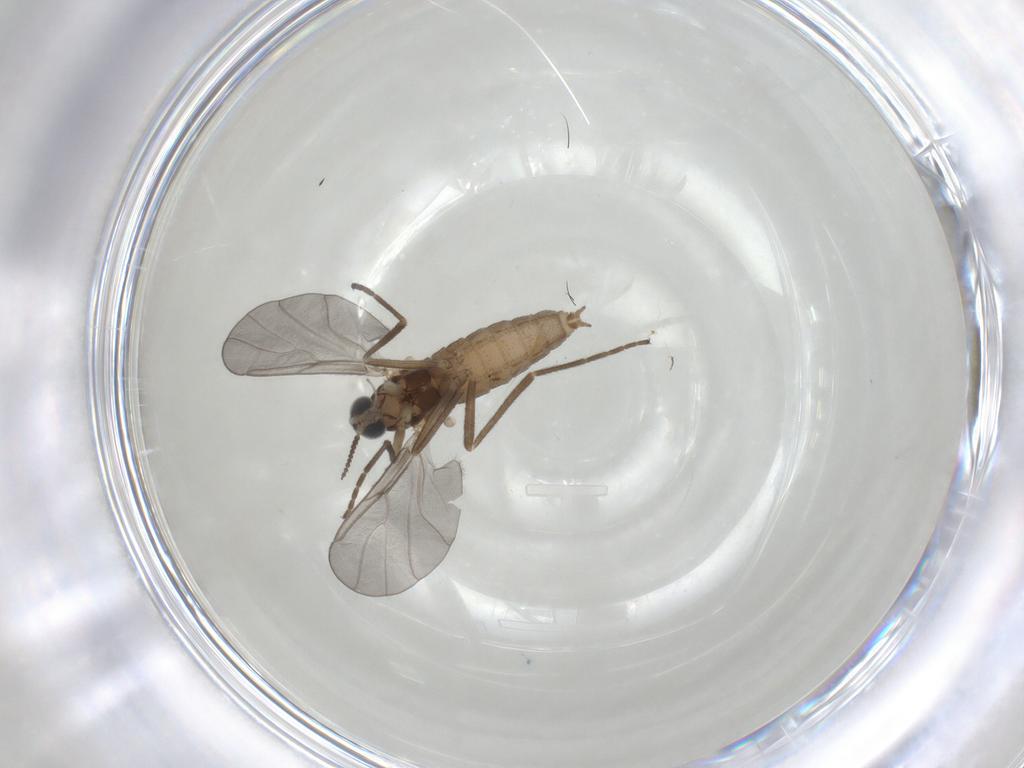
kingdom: Animalia
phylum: Arthropoda
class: Insecta
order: Diptera
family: Cecidomyiidae
